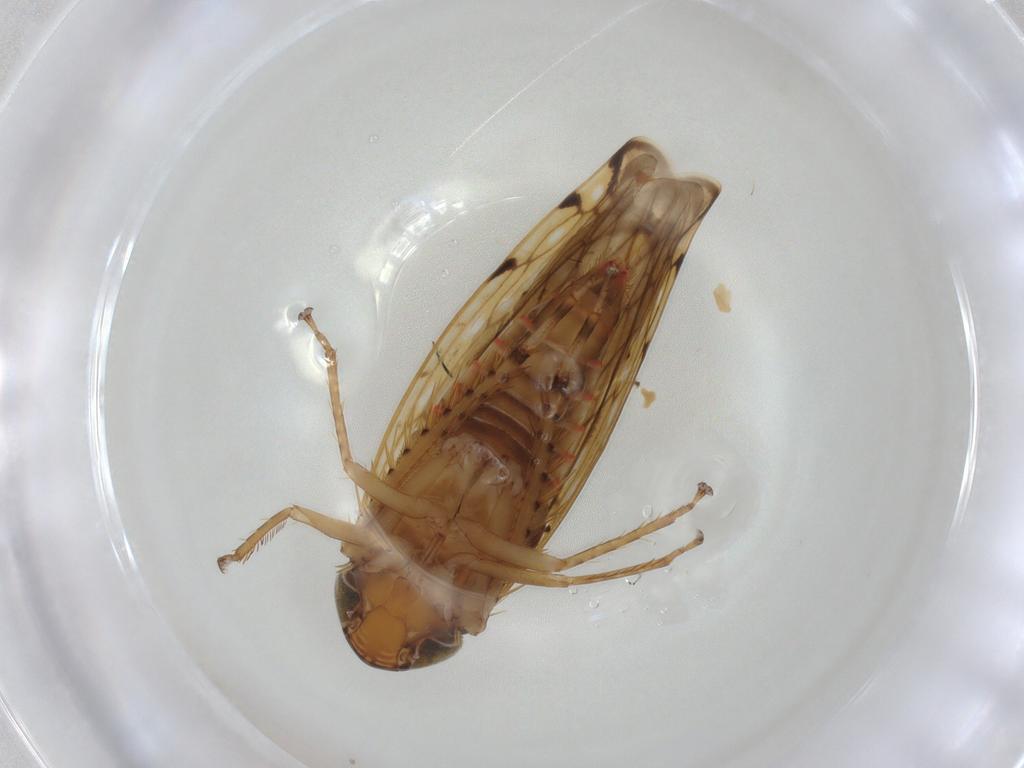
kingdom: Animalia
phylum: Arthropoda
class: Insecta
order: Hemiptera
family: Cicadellidae
